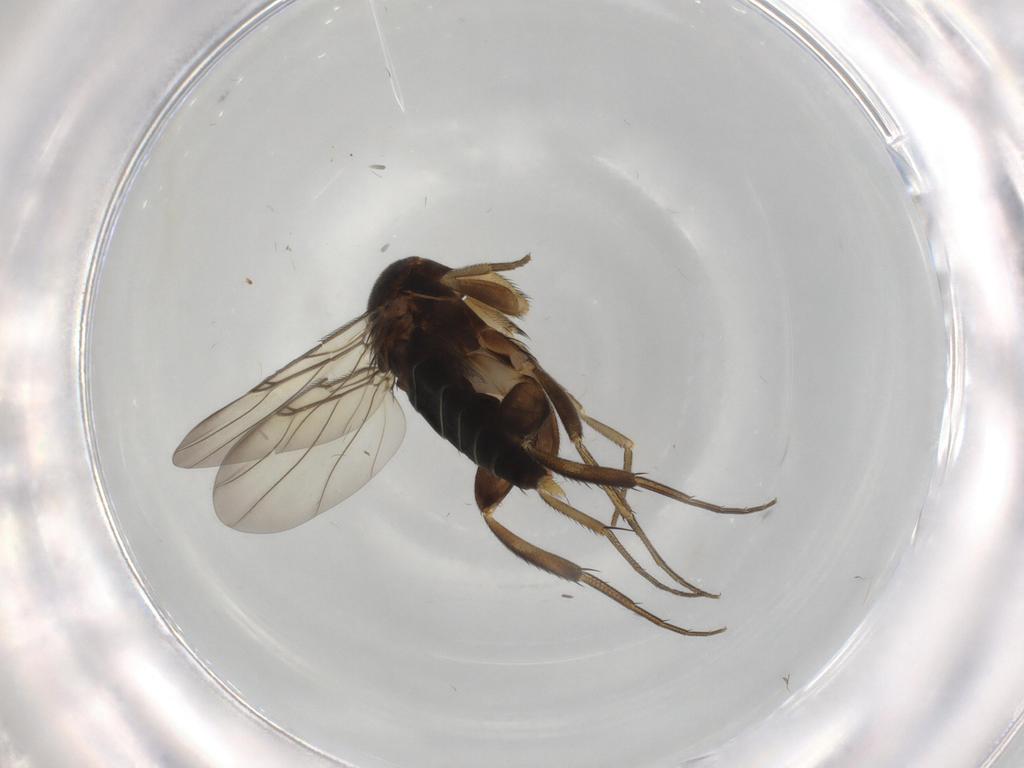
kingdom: Animalia
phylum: Arthropoda
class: Insecta
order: Diptera
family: Phoridae
